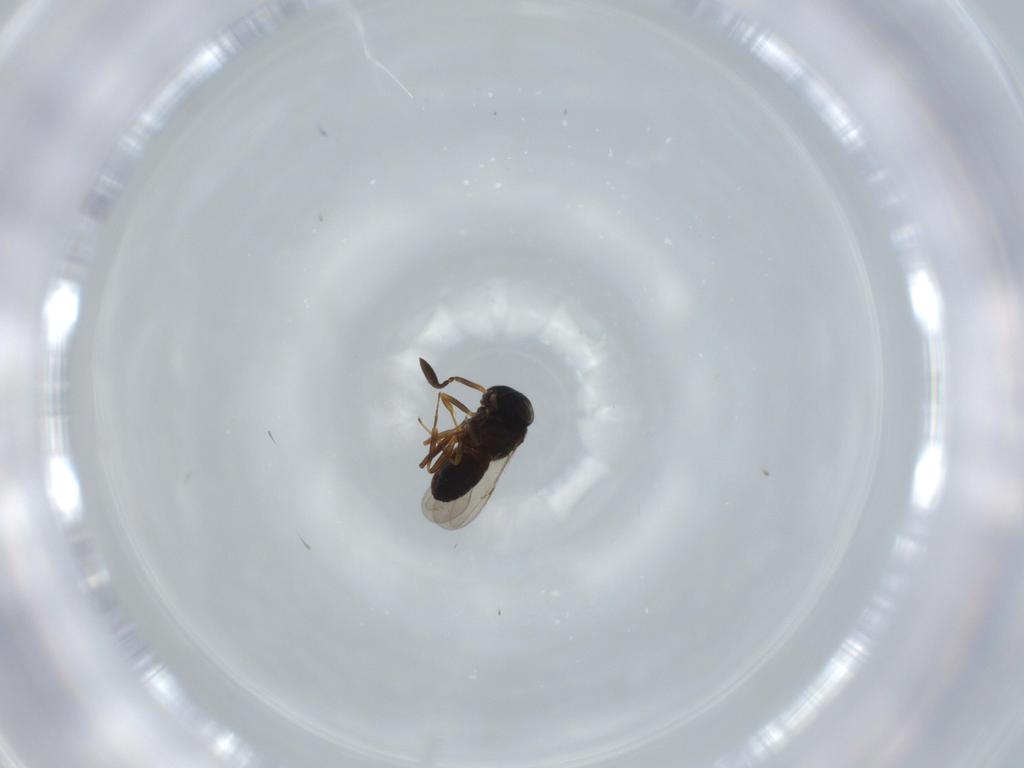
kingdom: Animalia
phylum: Arthropoda
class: Insecta
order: Hymenoptera
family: Scelionidae
